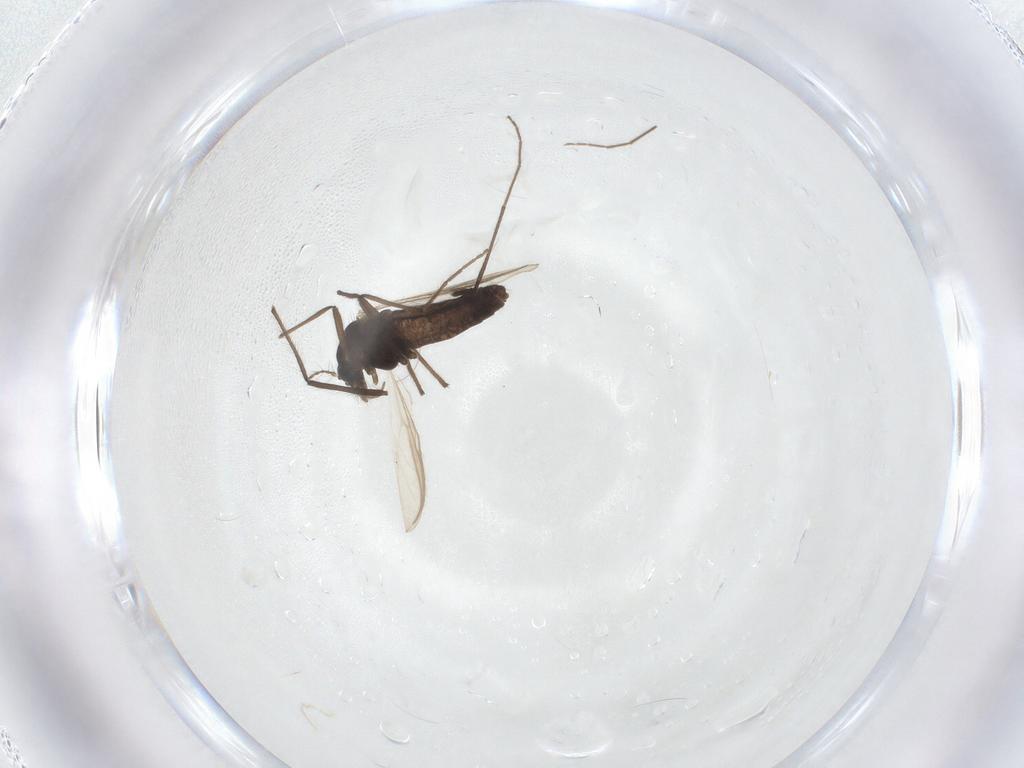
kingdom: Animalia
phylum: Arthropoda
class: Insecta
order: Diptera
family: Chironomidae
